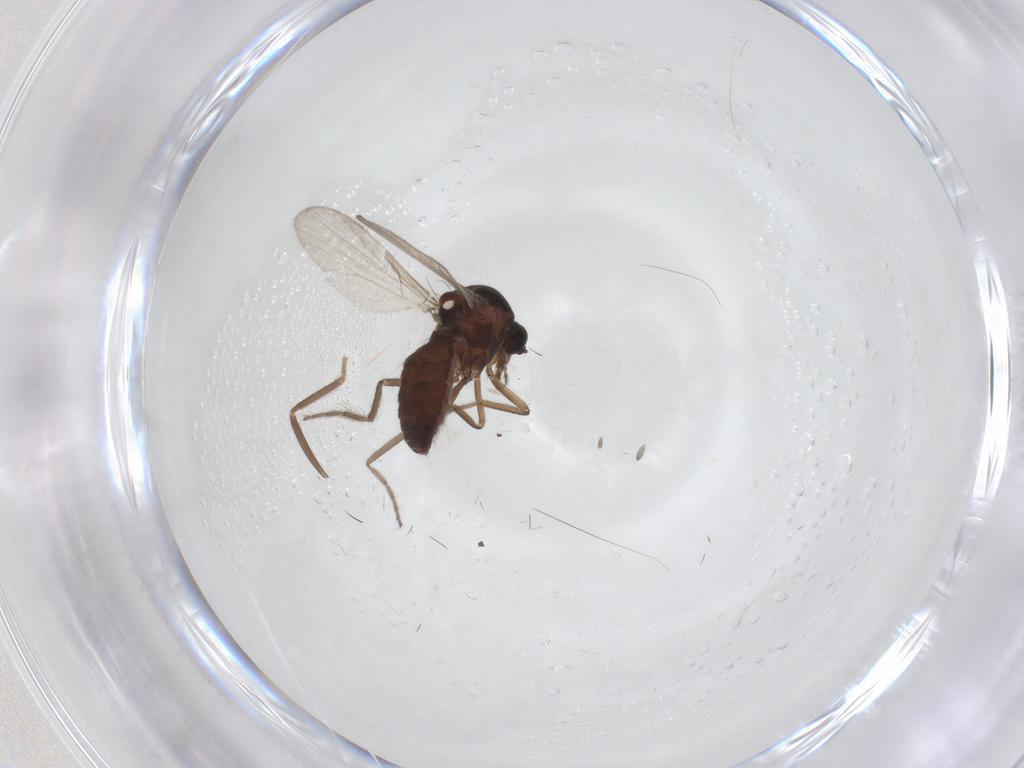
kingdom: Animalia
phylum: Arthropoda
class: Insecta
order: Diptera
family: Ceratopogonidae
